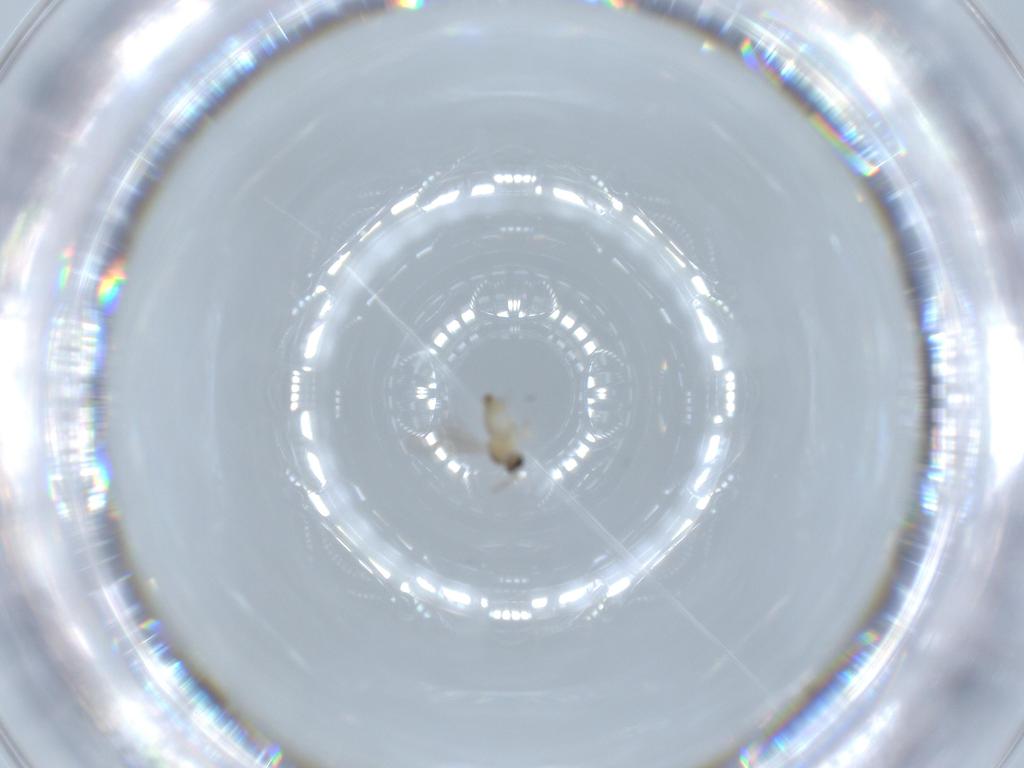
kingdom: Animalia
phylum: Arthropoda
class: Insecta
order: Diptera
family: Cecidomyiidae
